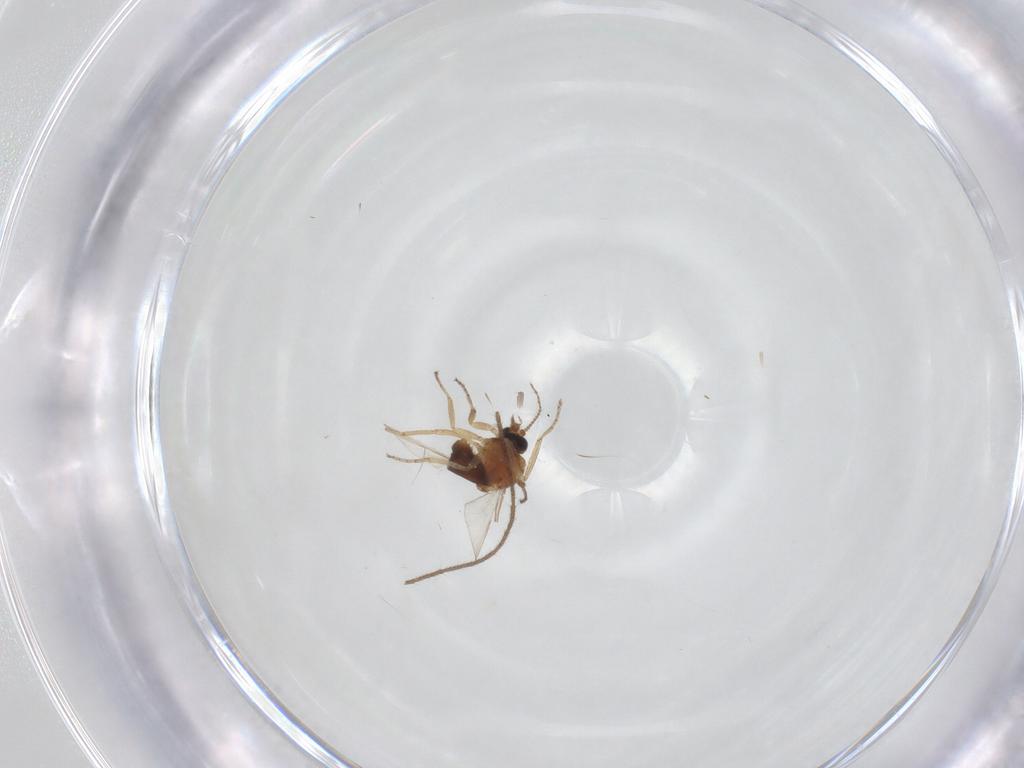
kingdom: Animalia
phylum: Arthropoda
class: Insecta
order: Diptera
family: Ceratopogonidae
